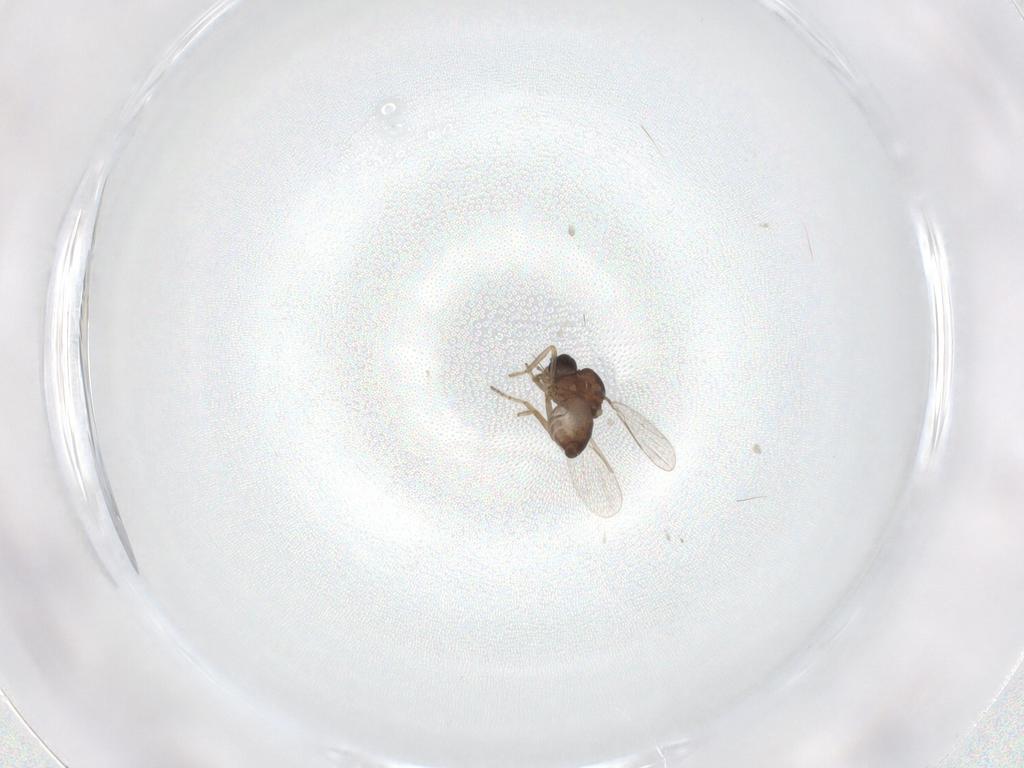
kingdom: Animalia
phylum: Arthropoda
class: Insecta
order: Diptera
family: Ceratopogonidae
